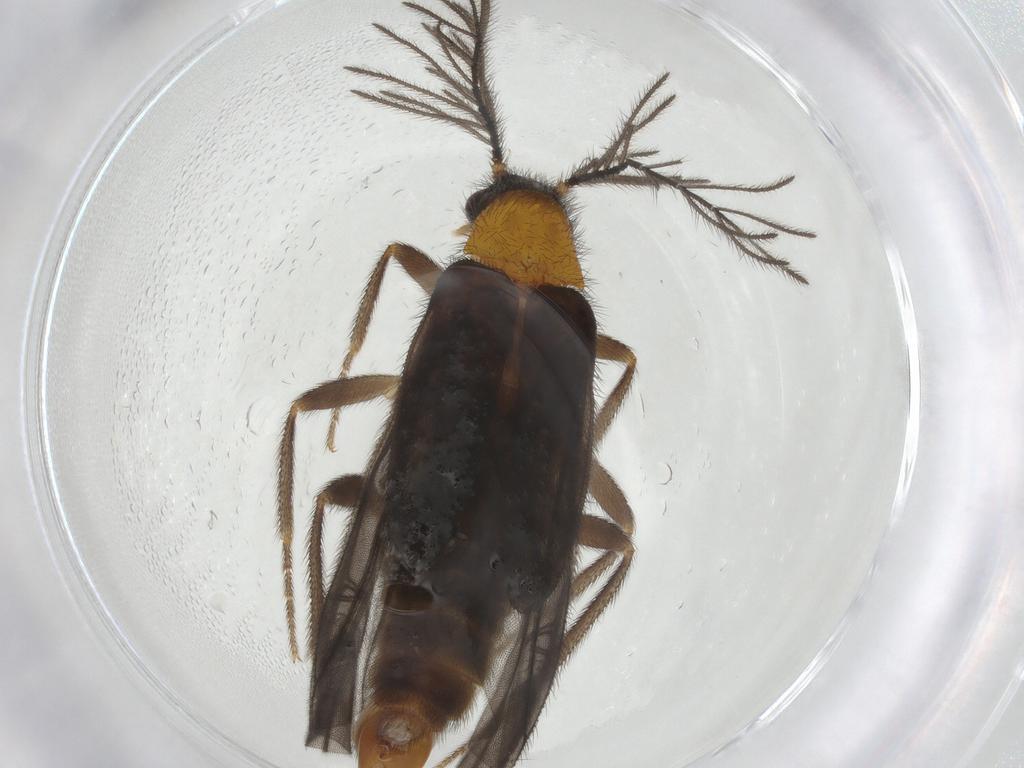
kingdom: Animalia
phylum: Arthropoda
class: Insecta
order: Coleoptera
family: Phengodidae
